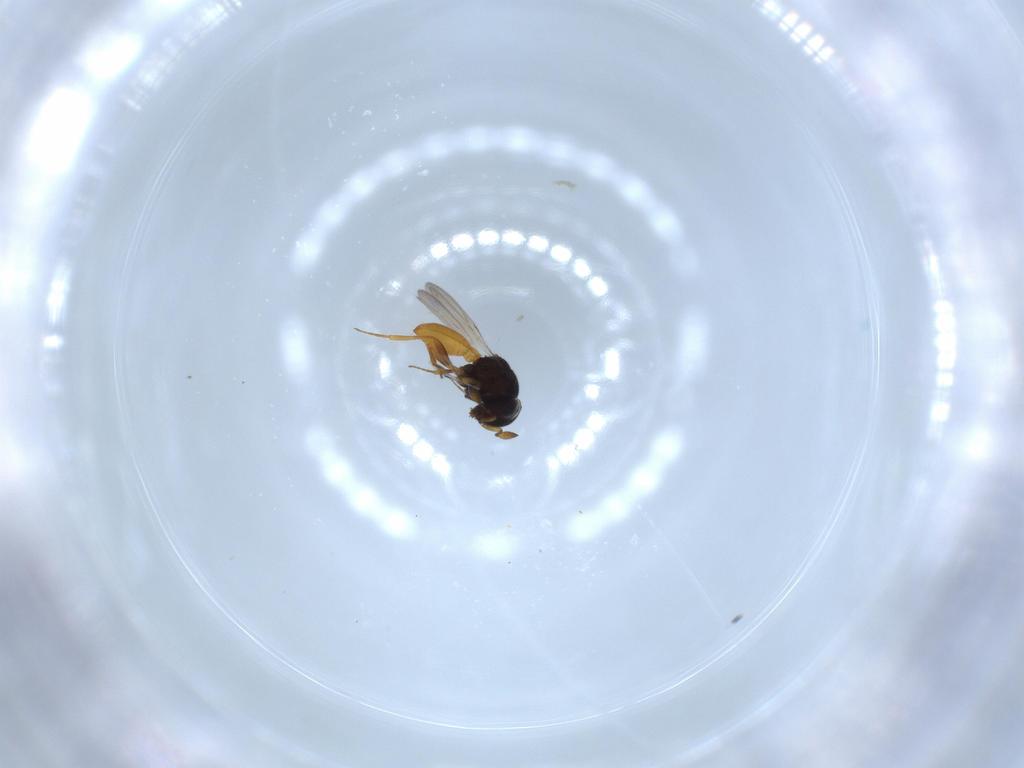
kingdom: Animalia
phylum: Arthropoda
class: Insecta
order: Hymenoptera
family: Scelionidae
